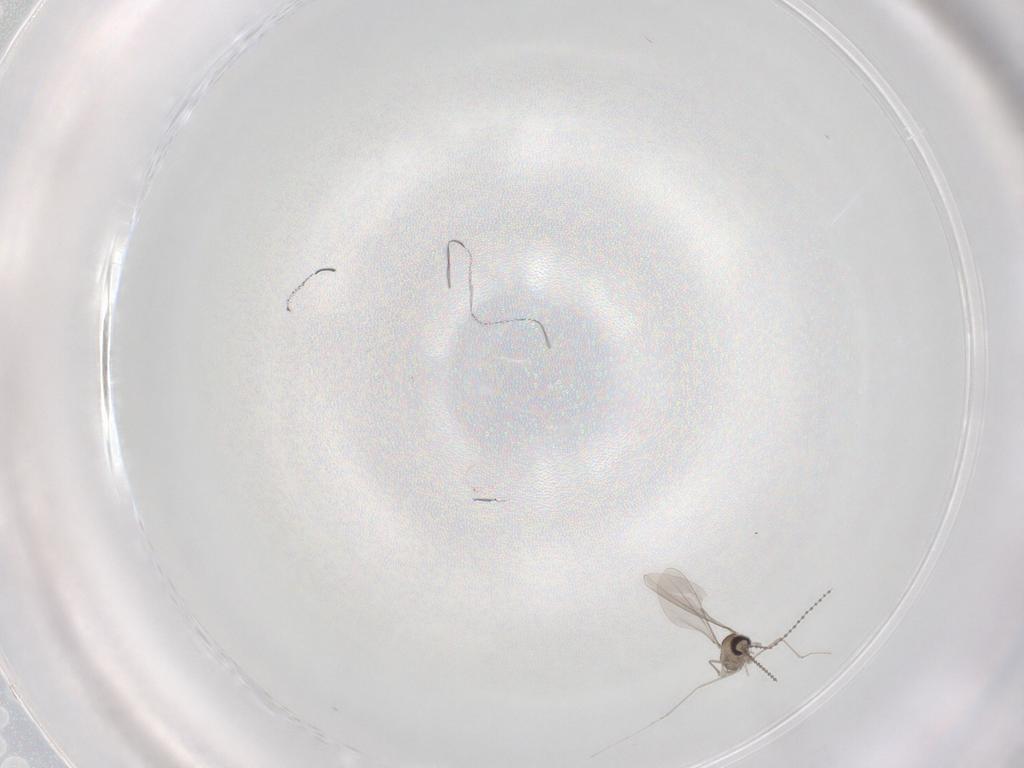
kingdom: Animalia
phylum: Arthropoda
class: Insecta
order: Diptera
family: Cecidomyiidae
